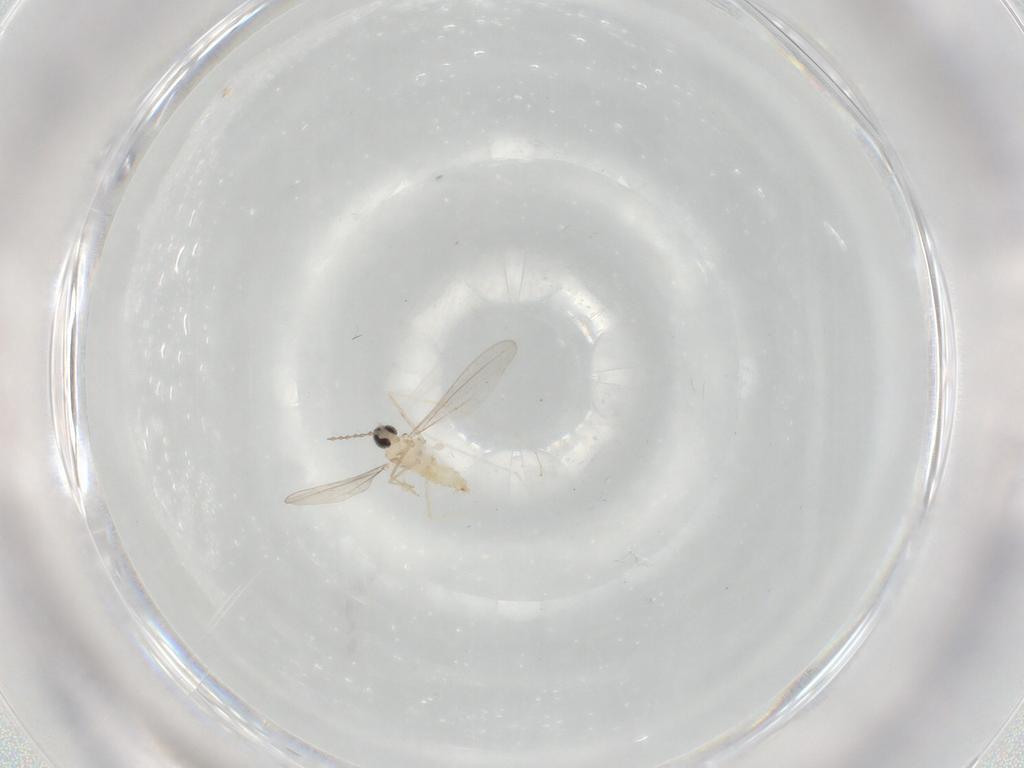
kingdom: Animalia
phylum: Arthropoda
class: Insecta
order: Diptera
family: Cecidomyiidae
